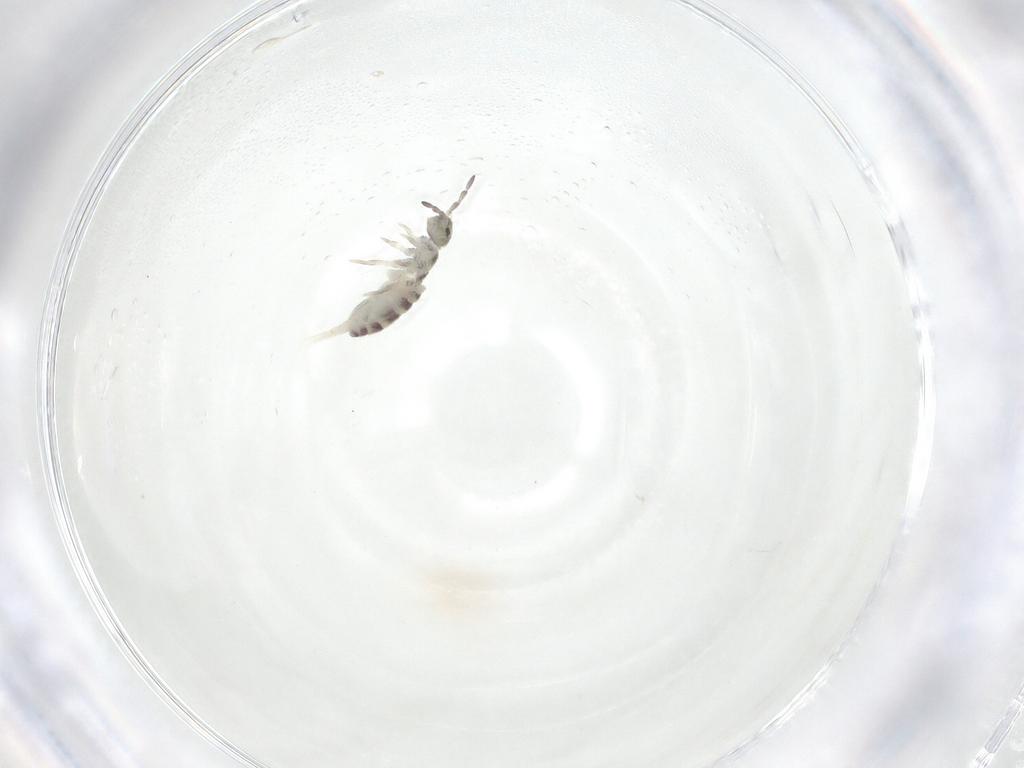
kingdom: Animalia
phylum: Arthropoda
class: Collembola
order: Entomobryomorpha
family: Isotomidae
